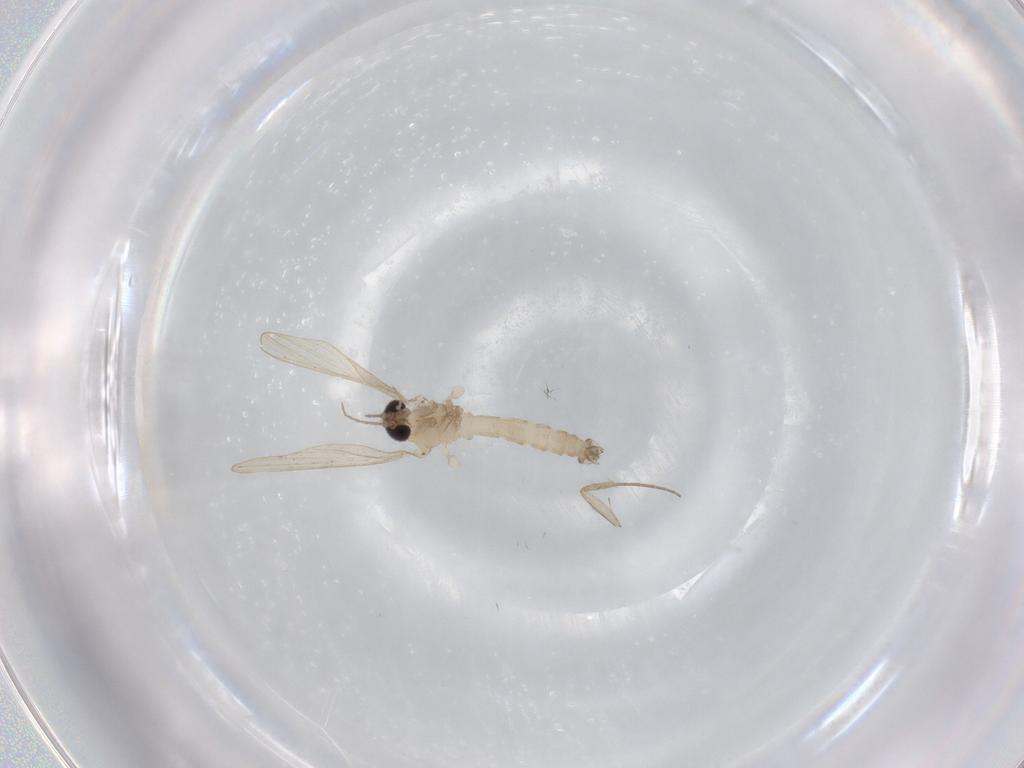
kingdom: Animalia
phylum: Arthropoda
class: Insecta
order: Diptera
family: Psychodidae
